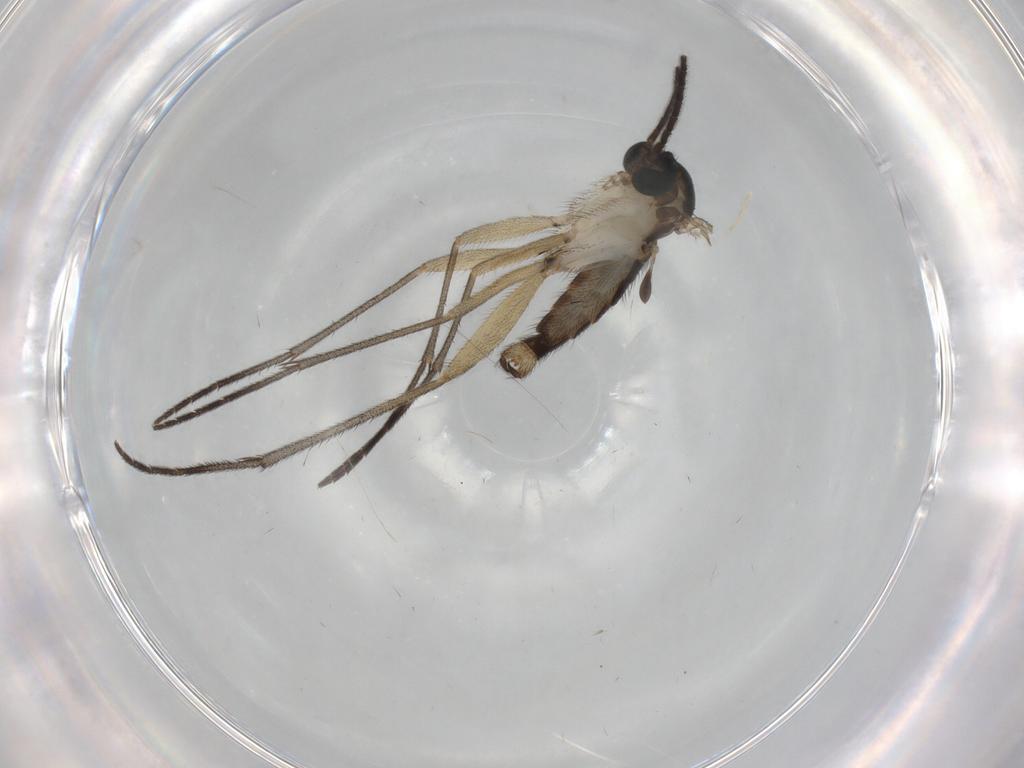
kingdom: Animalia
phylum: Arthropoda
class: Insecta
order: Diptera
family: Sciaridae
